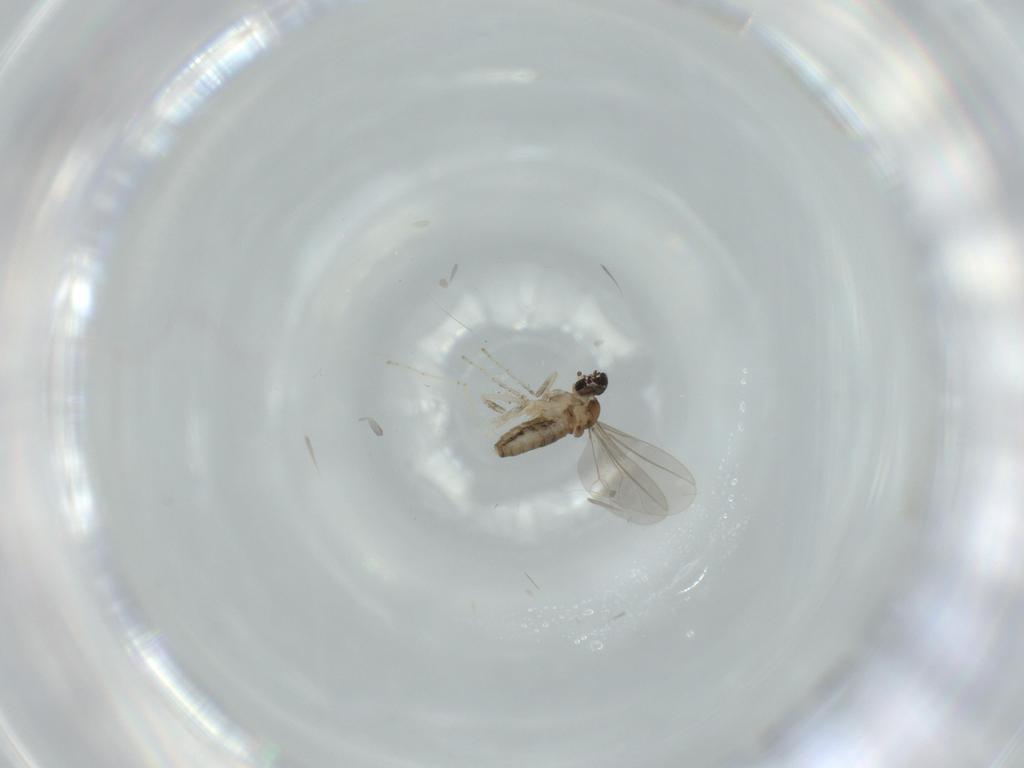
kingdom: Animalia
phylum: Arthropoda
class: Insecta
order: Diptera
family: Cecidomyiidae
